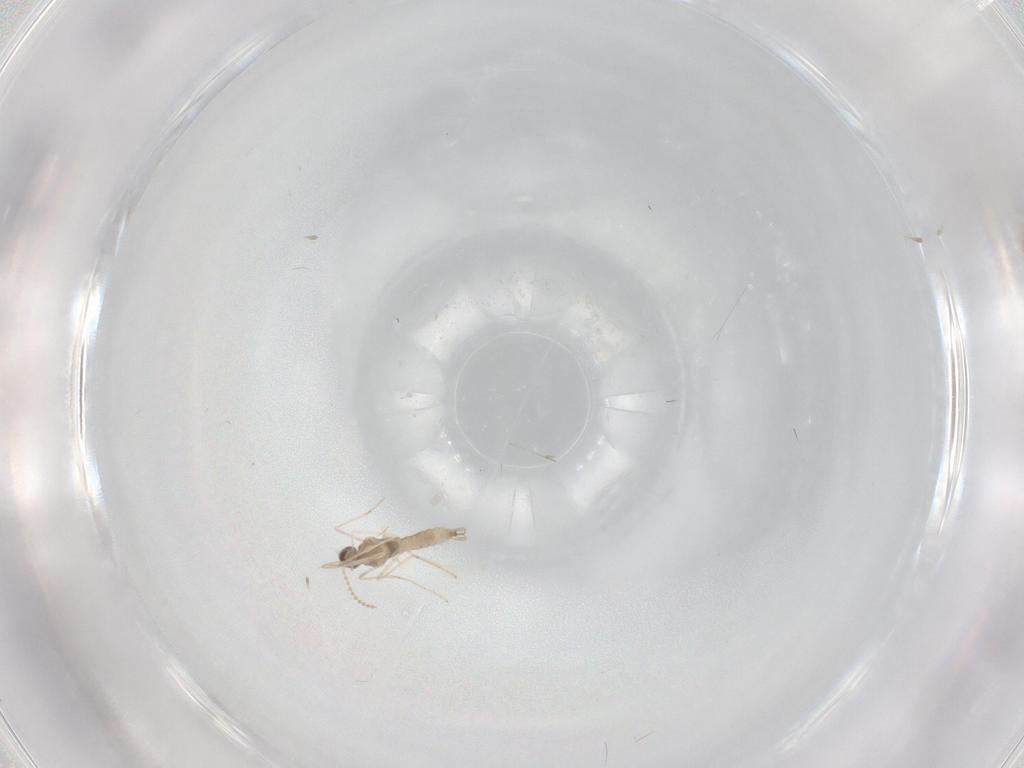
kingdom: Animalia
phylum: Arthropoda
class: Insecta
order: Diptera
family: Cecidomyiidae
